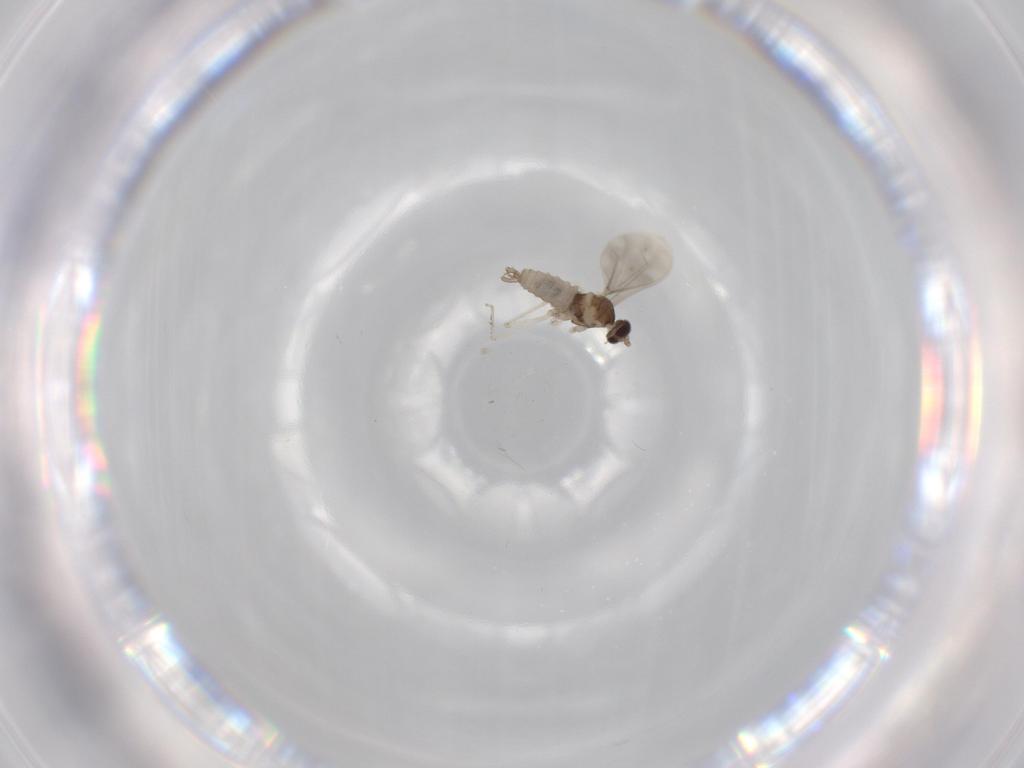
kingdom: Animalia
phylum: Arthropoda
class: Insecta
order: Diptera
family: Cecidomyiidae
